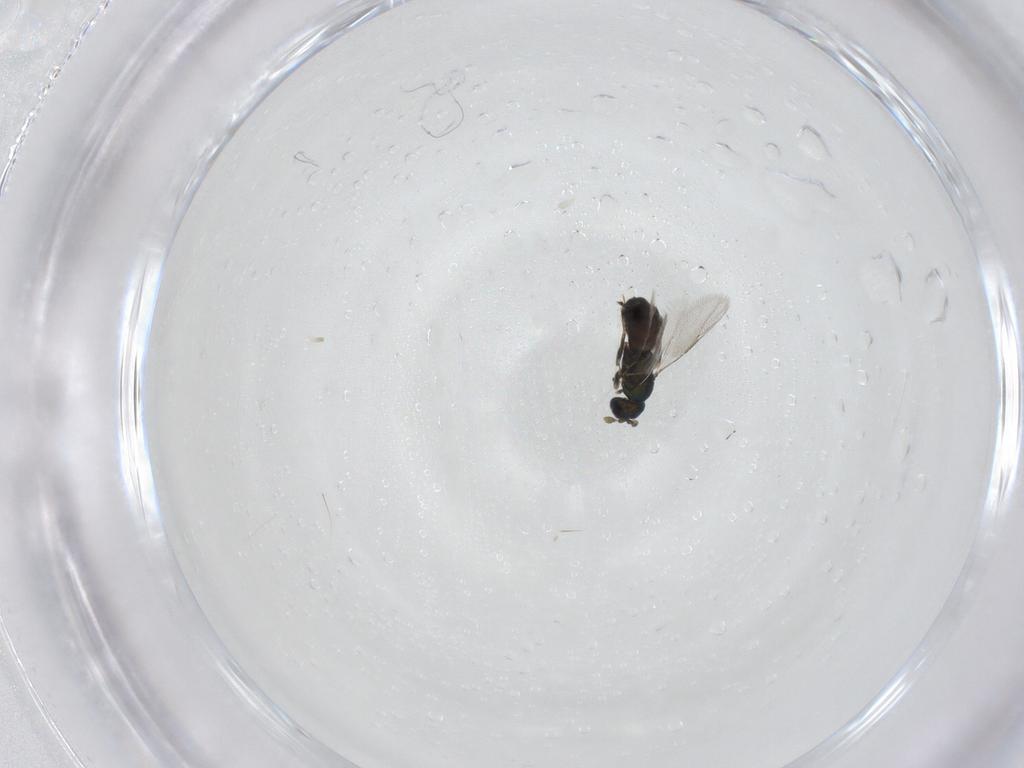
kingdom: Animalia
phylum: Arthropoda
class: Insecta
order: Hymenoptera
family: Eulophidae
